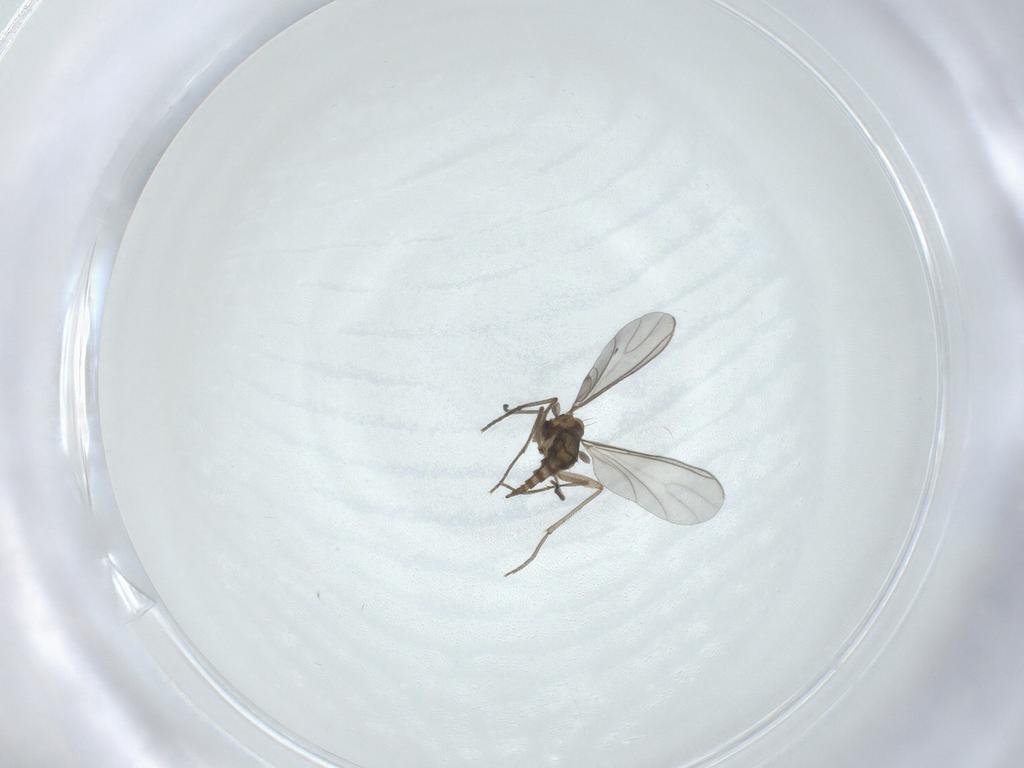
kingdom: Animalia
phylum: Arthropoda
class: Insecta
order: Diptera
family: Sciaridae
